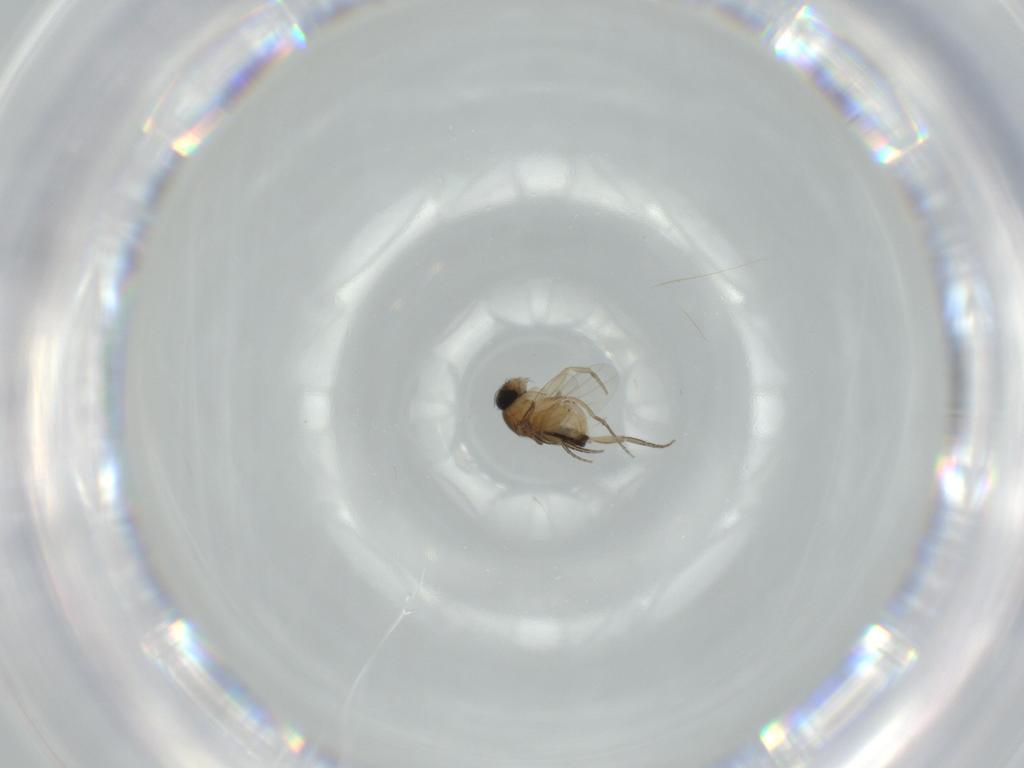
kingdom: Animalia
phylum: Arthropoda
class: Insecta
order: Diptera
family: Phoridae
